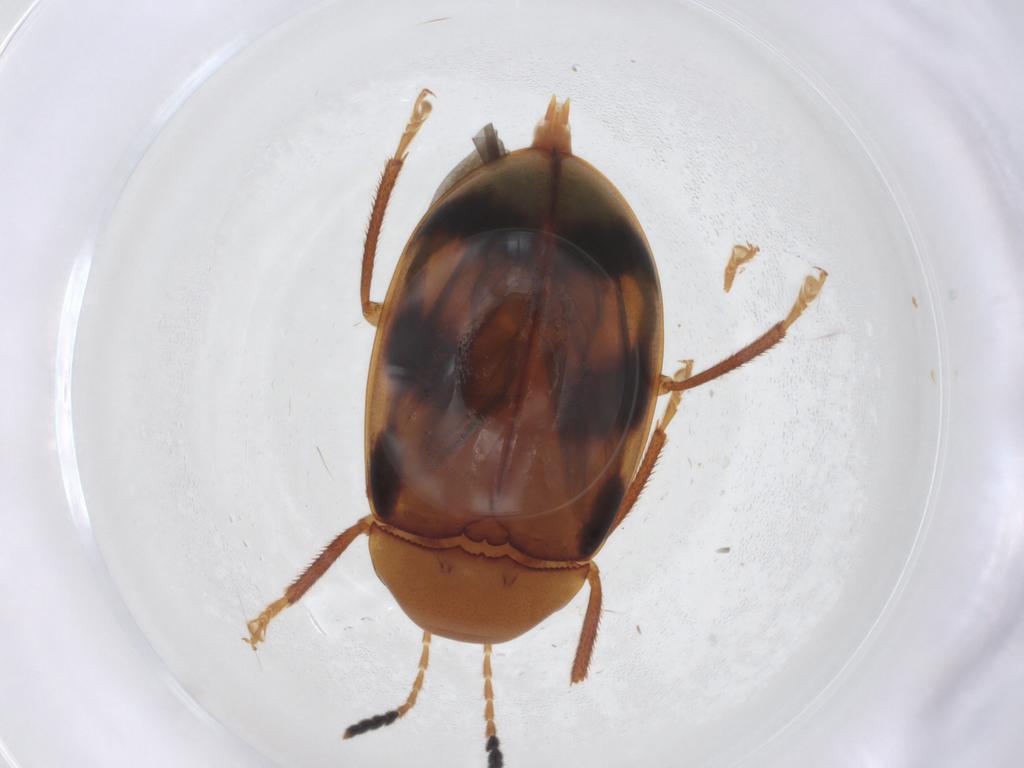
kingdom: Animalia
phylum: Arthropoda
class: Insecta
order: Coleoptera
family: Ptilodactylidae
